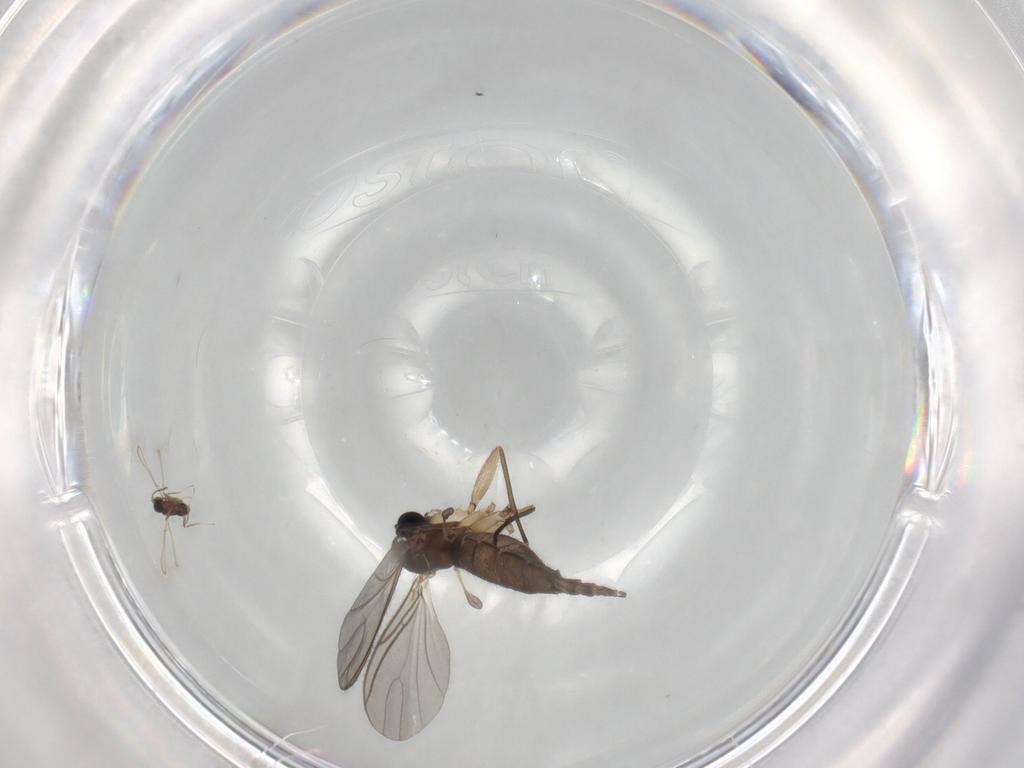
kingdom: Animalia
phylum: Arthropoda
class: Insecta
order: Diptera
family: Sciaridae
